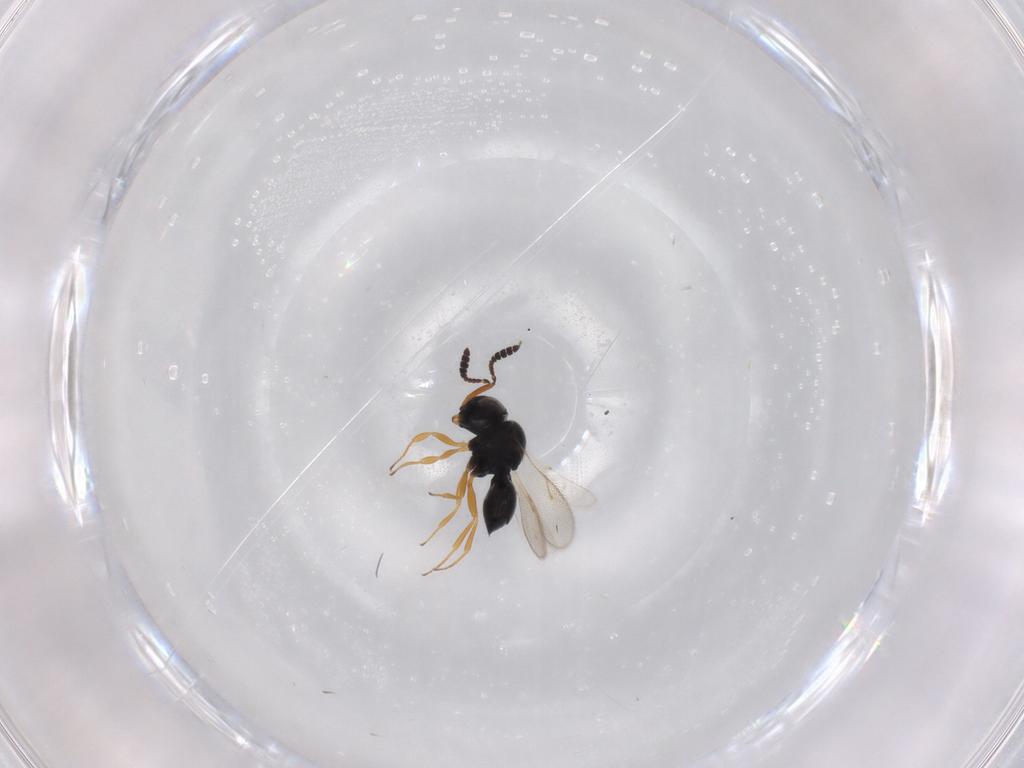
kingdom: Animalia
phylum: Arthropoda
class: Insecta
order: Hymenoptera
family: Scelionidae
